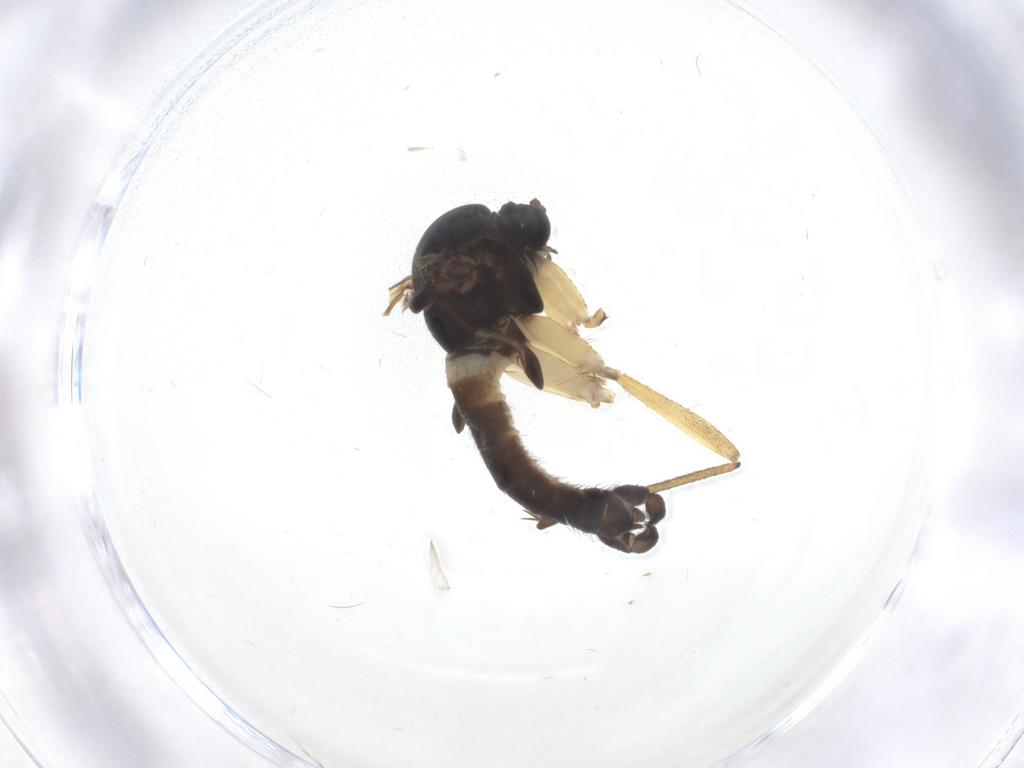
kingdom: Animalia
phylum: Arthropoda
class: Insecta
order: Diptera
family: Sciaridae
